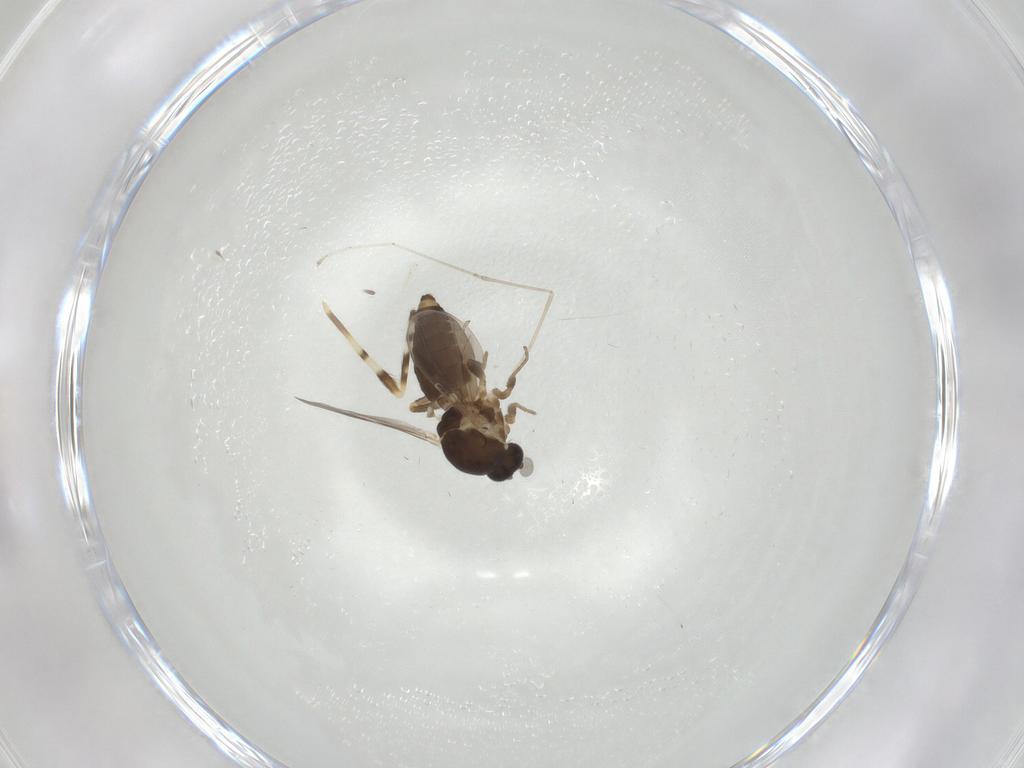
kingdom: Animalia
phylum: Arthropoda
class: Insecta
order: Diptera
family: Ceratopogonidae
